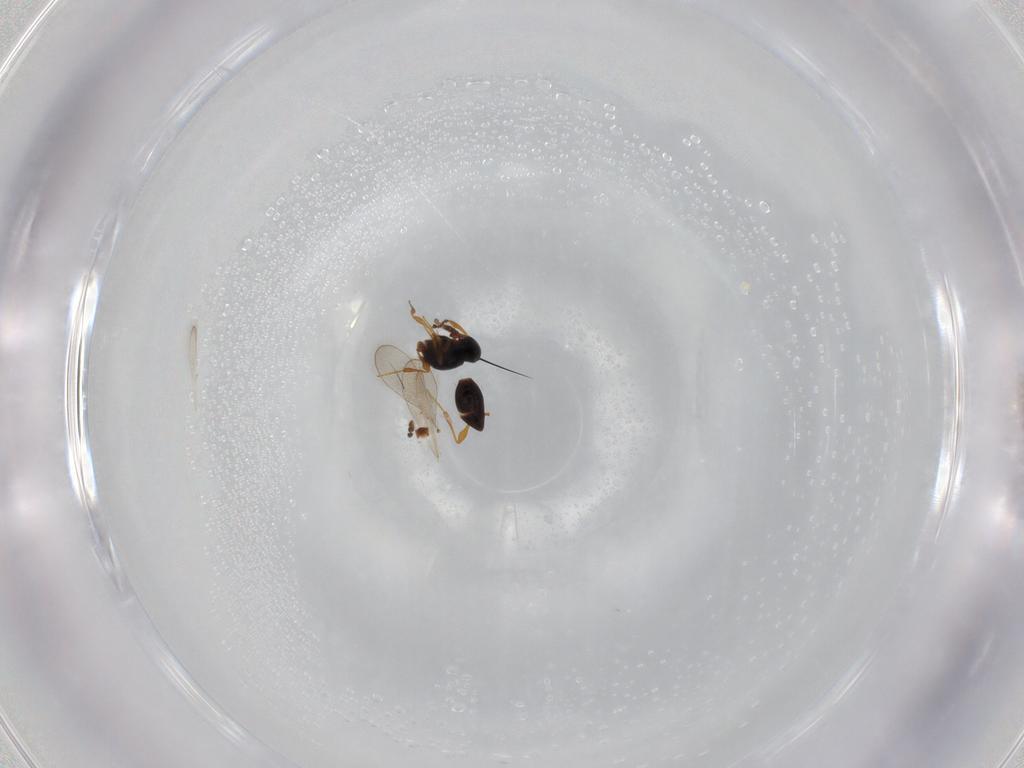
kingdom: Animalia
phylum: Arthropoda
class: Insecta
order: Hymenoptera
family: Platygastridae
